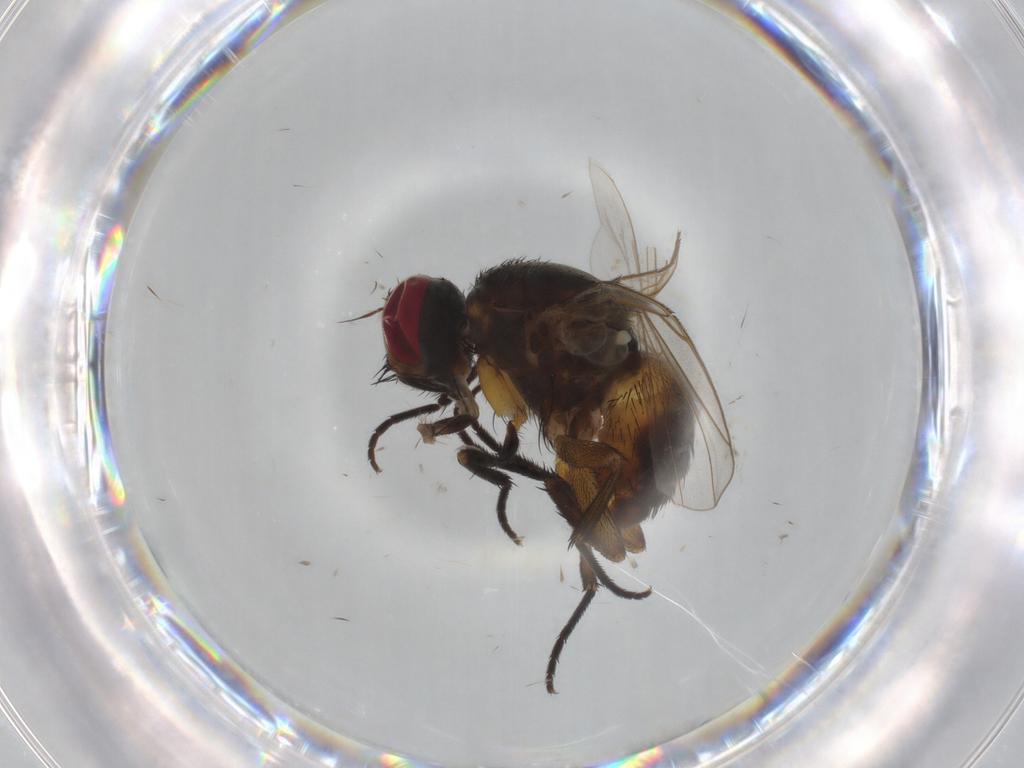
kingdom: Animalia
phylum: Arthropoda
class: Insecta
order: Diptera
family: Muscidae
